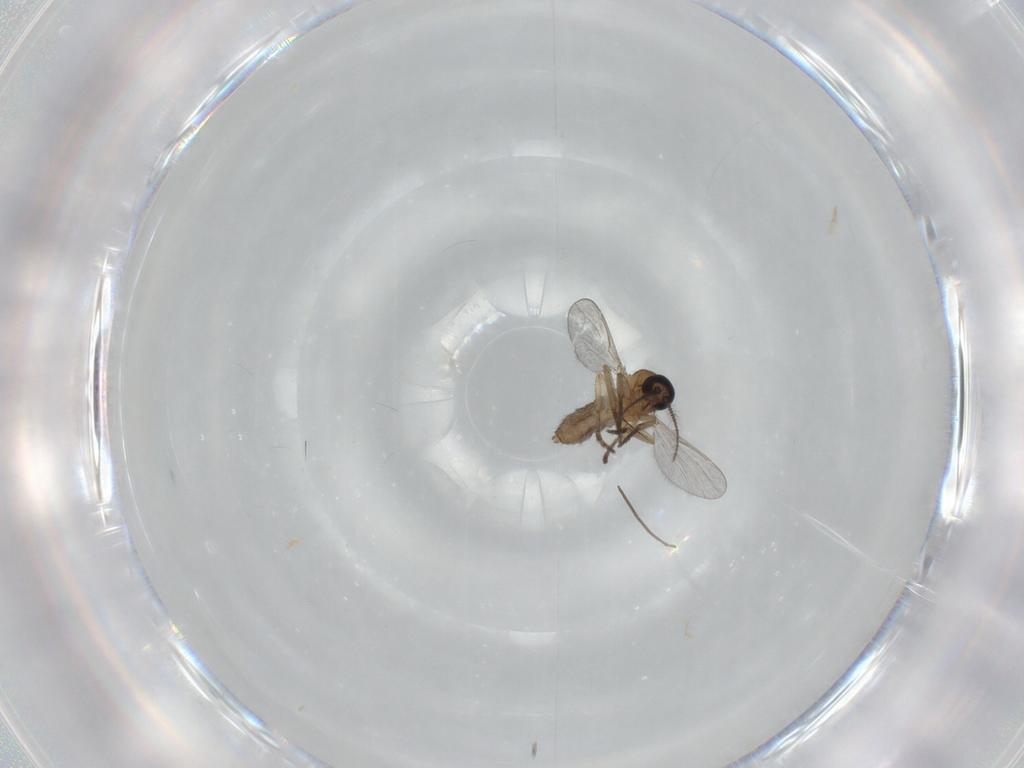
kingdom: Animalia
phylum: Arthropoda
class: Insecta
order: Diptera
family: Ceratopogonidae
